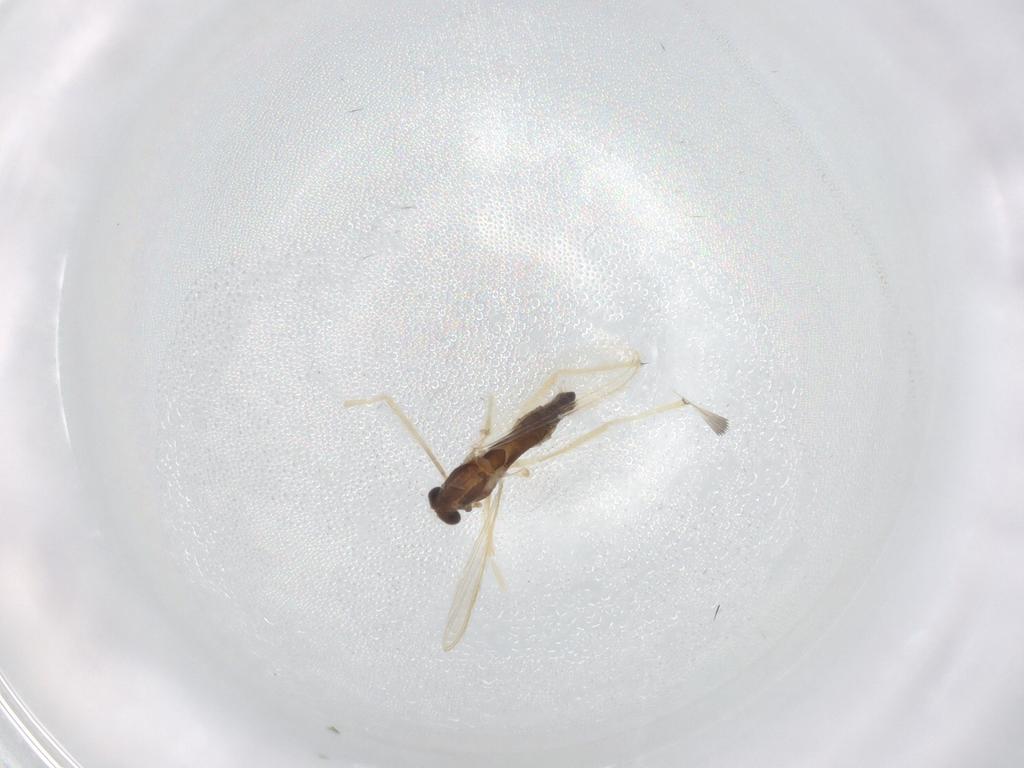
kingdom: Animalia
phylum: Arthropoda
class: Insecta
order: Diptera
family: Chironomidae
